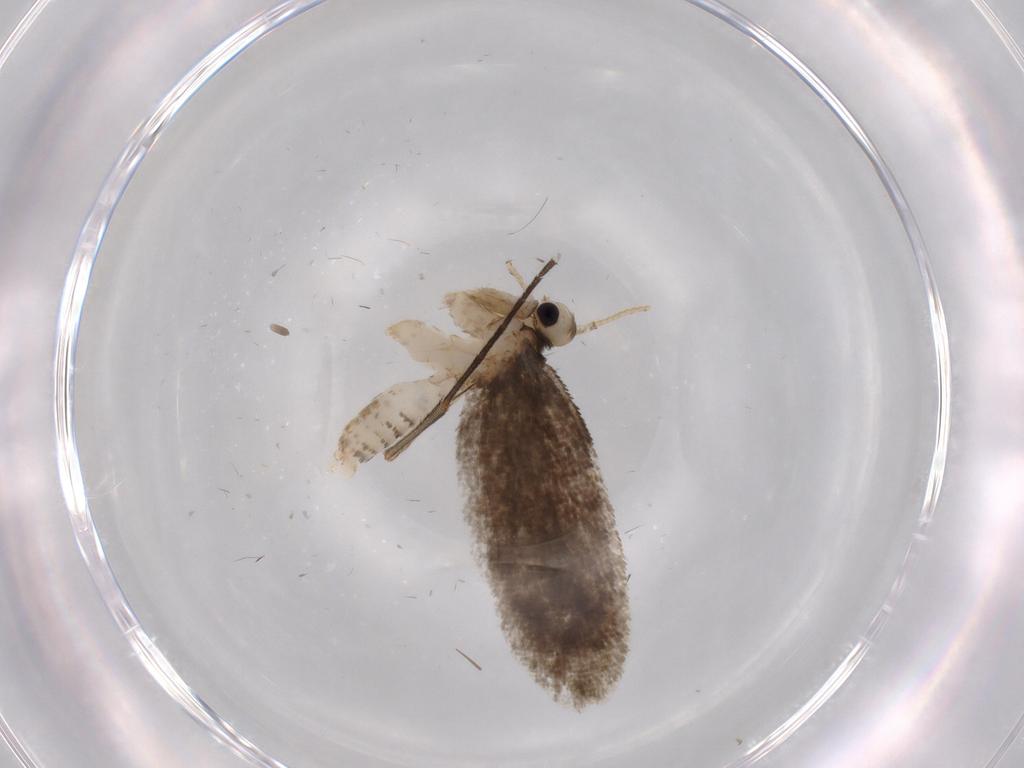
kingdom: Animalia
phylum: Arthropoda
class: Insecta
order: Lepidoptera
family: Psychidae
